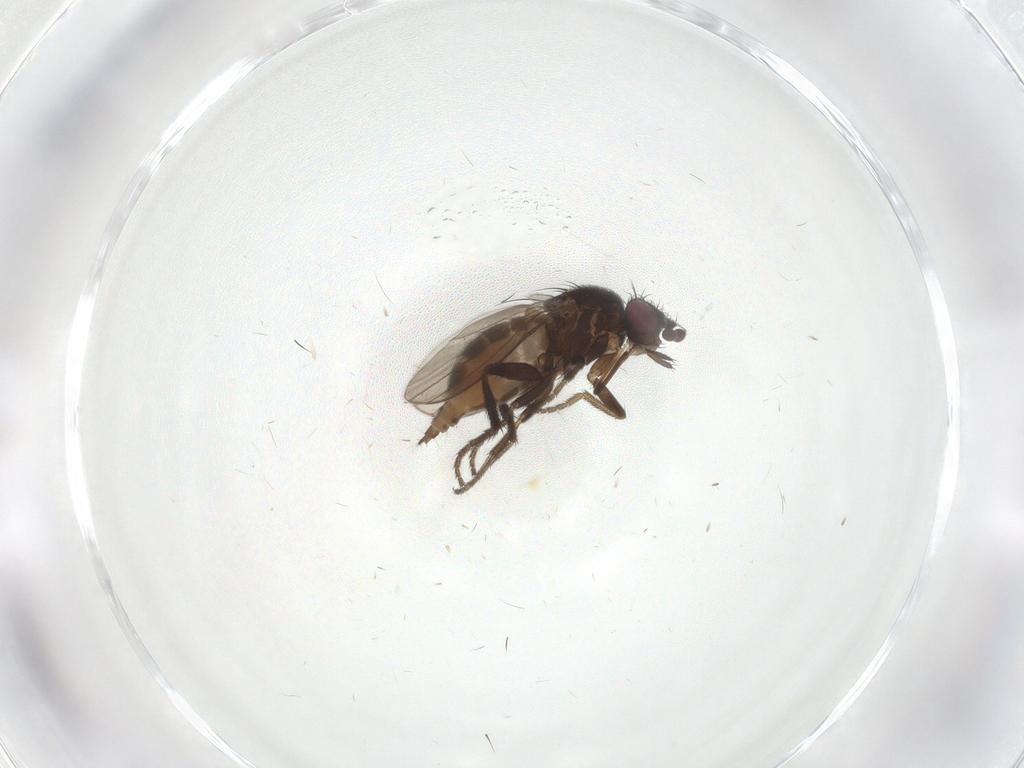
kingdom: Animalia
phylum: Arthropoda
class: Insecta
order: Diptera
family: Milichiidae
